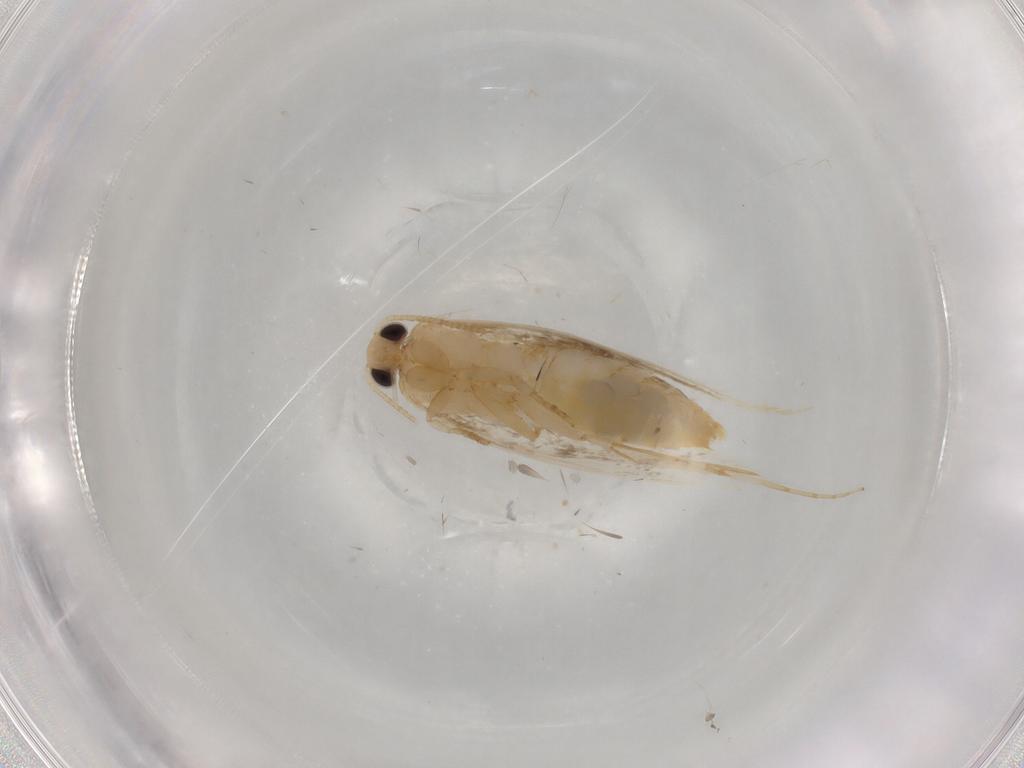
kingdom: Animalia
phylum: Arthropoda
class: Insecta
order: Lepidoptera
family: Tineidae
